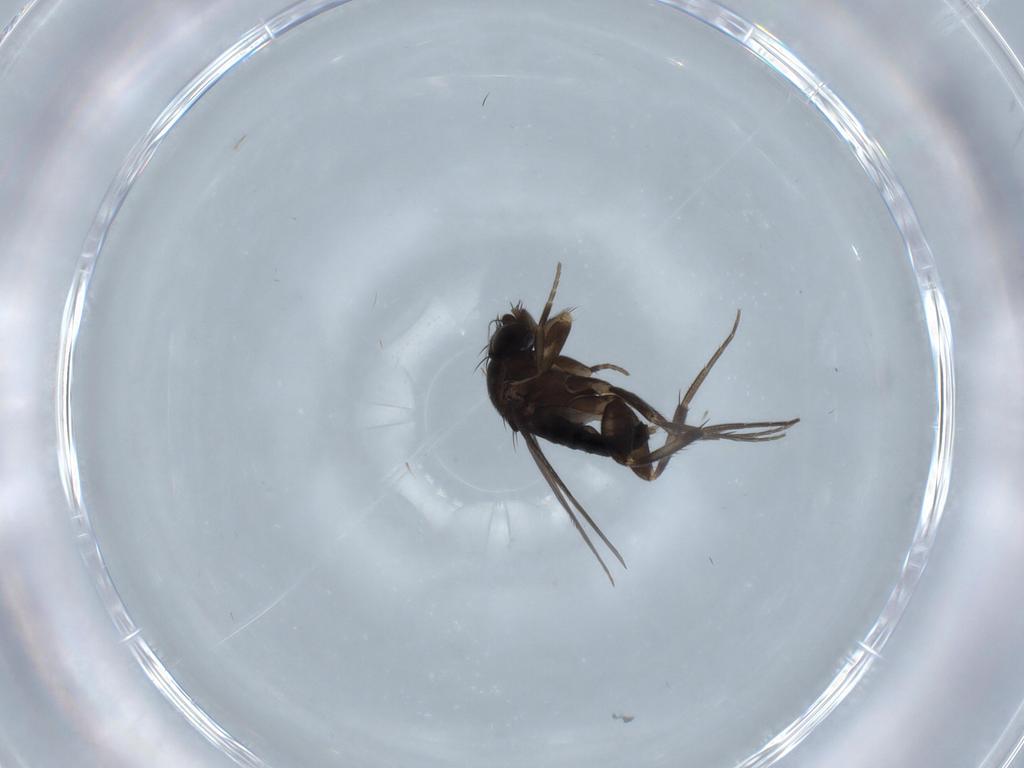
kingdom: Animalia
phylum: Arthropoda
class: Insecta
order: Diptera
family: Phoridae
